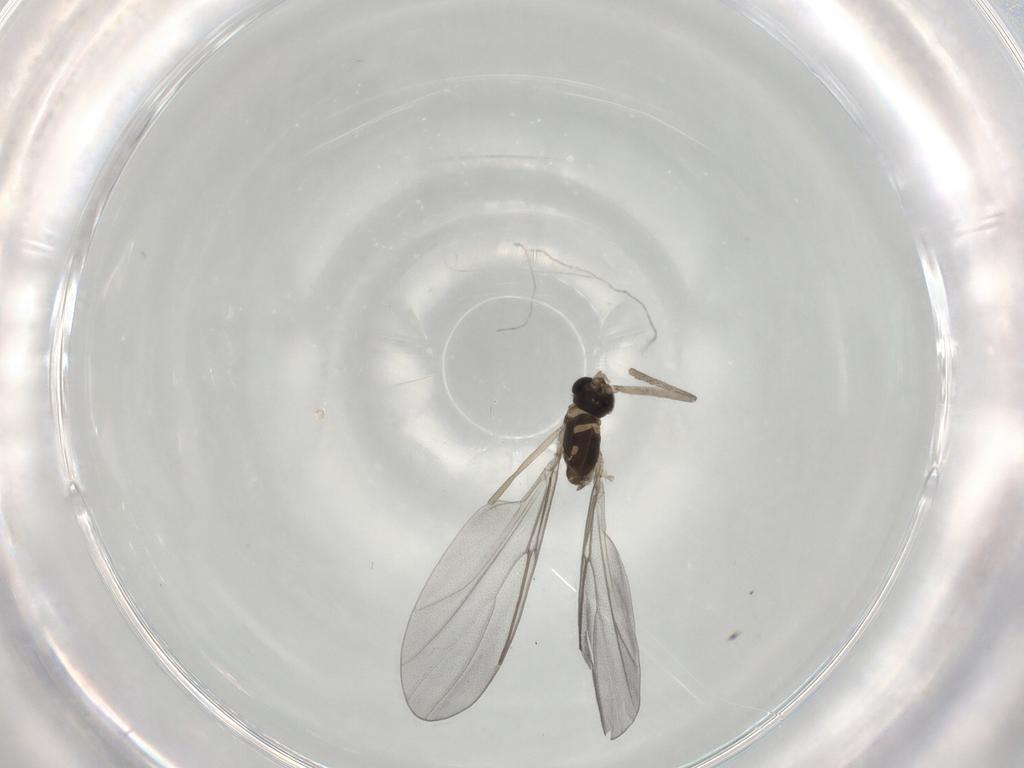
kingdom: Animalia
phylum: Arthropoda
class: Insecta
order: Diptera
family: Cecidomyiidae
